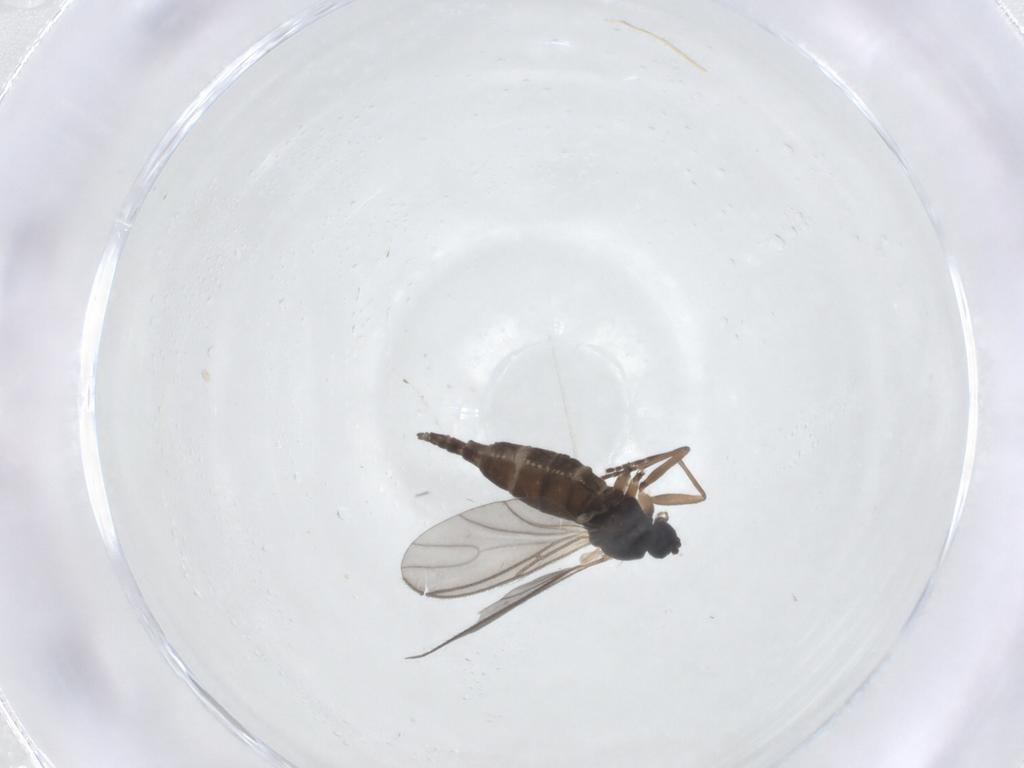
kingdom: Animalia
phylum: Arthropoda
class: Insecta
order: Diptera
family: Sciaridae
